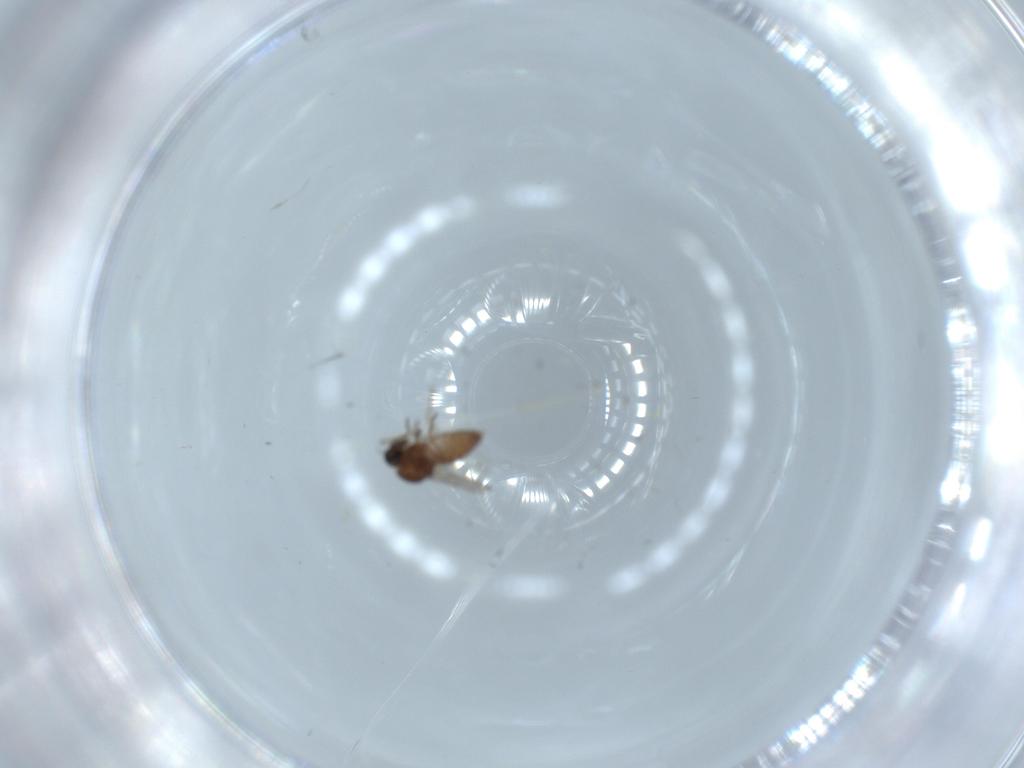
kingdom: Animalia
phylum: Arthropoda
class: Insecta
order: Diptera
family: Ceratopogonidae
